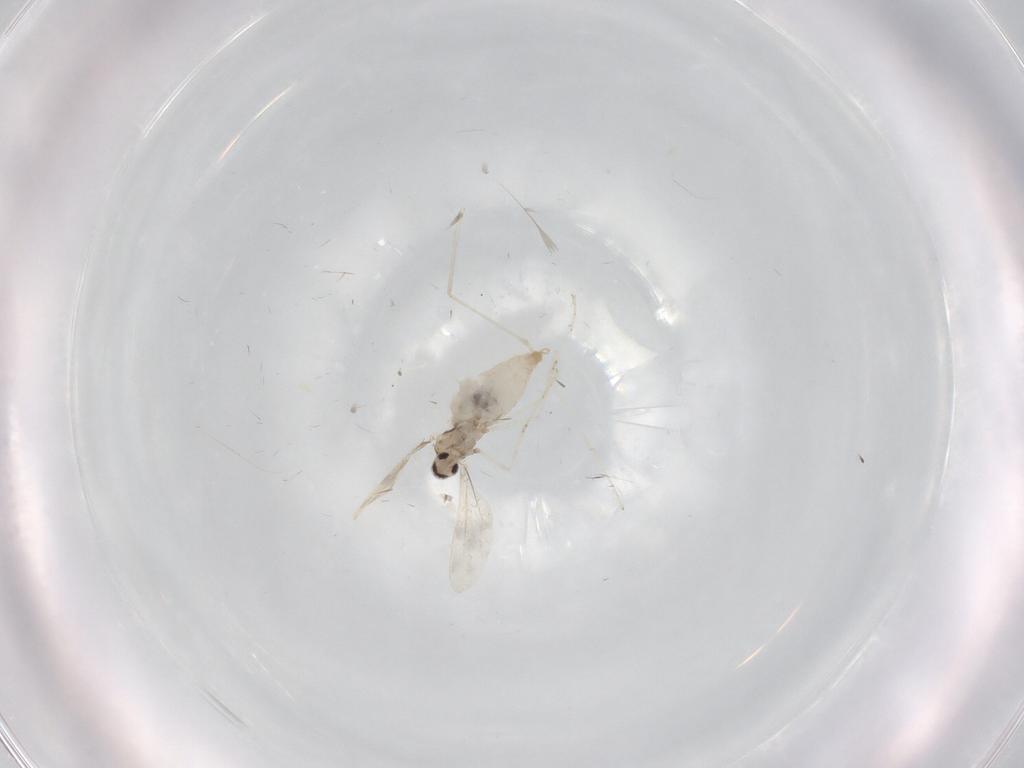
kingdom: Animalia
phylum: Arthropoda
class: Insecta
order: Diptera
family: Cecidomyiidae
